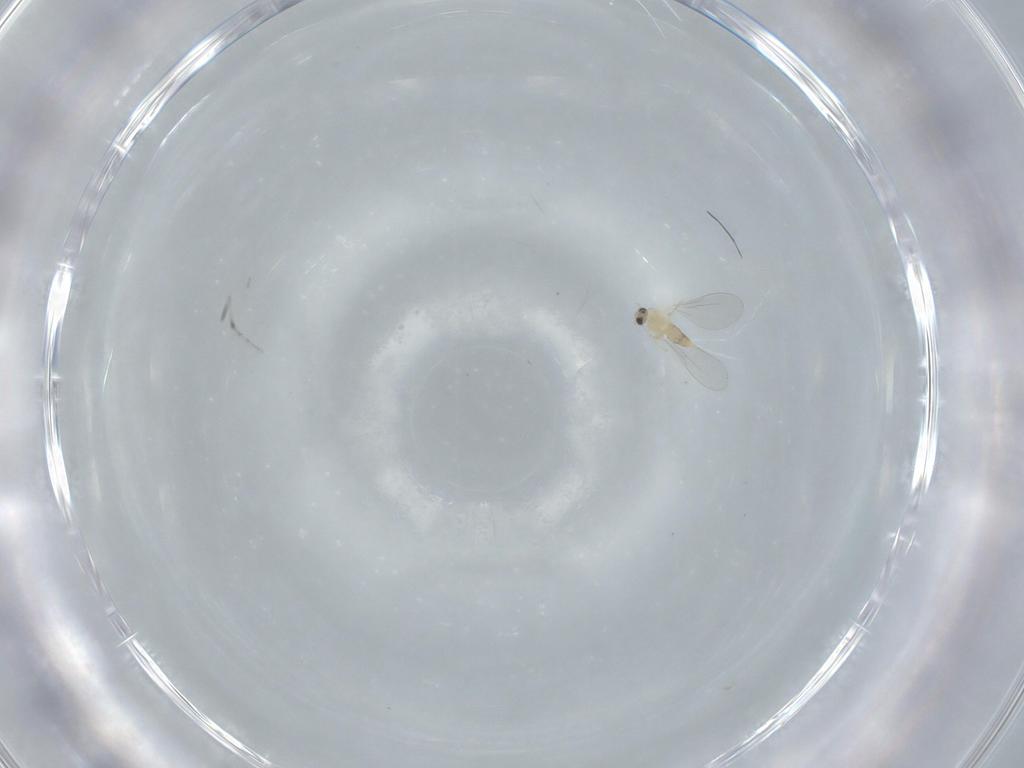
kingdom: Animalia
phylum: Arthropoda
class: Insecta
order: Diptera
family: Cecidomyiidae
